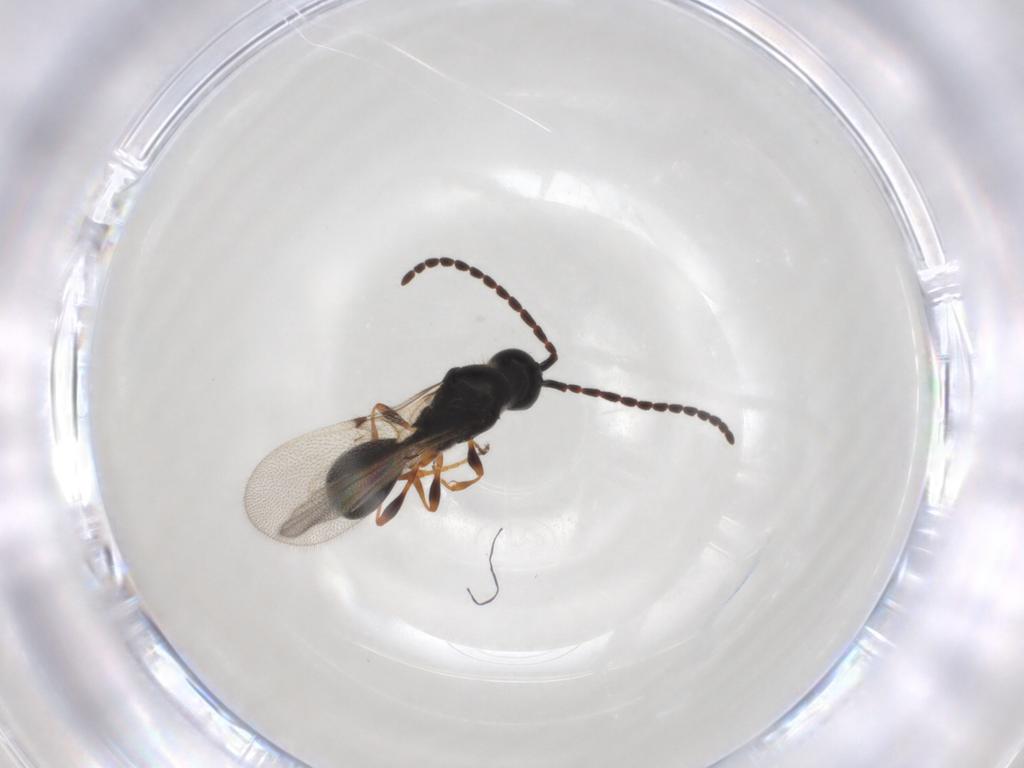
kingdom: Animalia
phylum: Arthropoda
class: Insecta
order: Hymenoptera
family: Diapriidae
